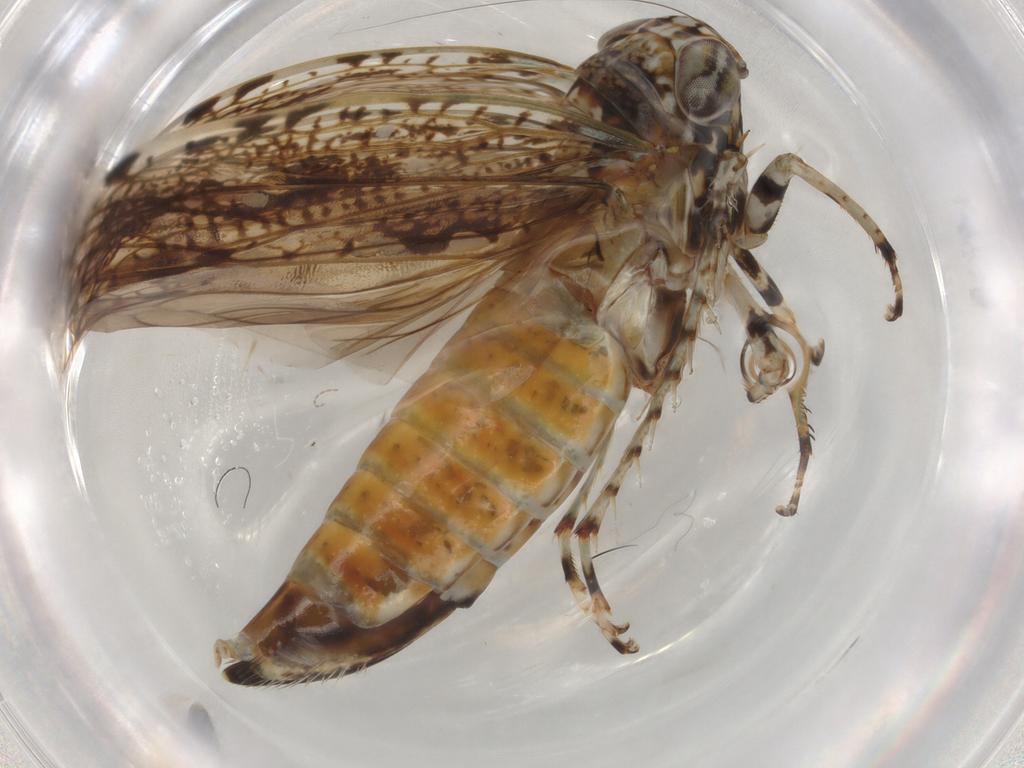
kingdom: Animalia
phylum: Arthropoda
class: Insecta
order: Hemiptera
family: Cicadellidae
